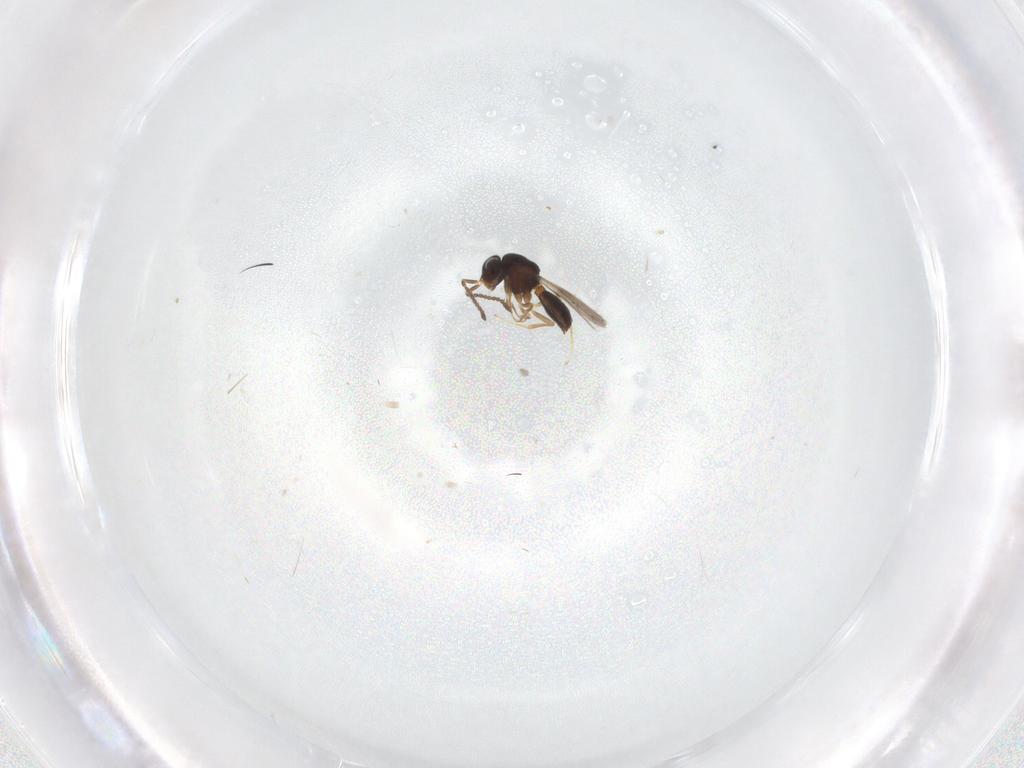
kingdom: Animalia
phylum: Arthropoda
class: Insecta
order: Hymenoptera
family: Scelionidae
